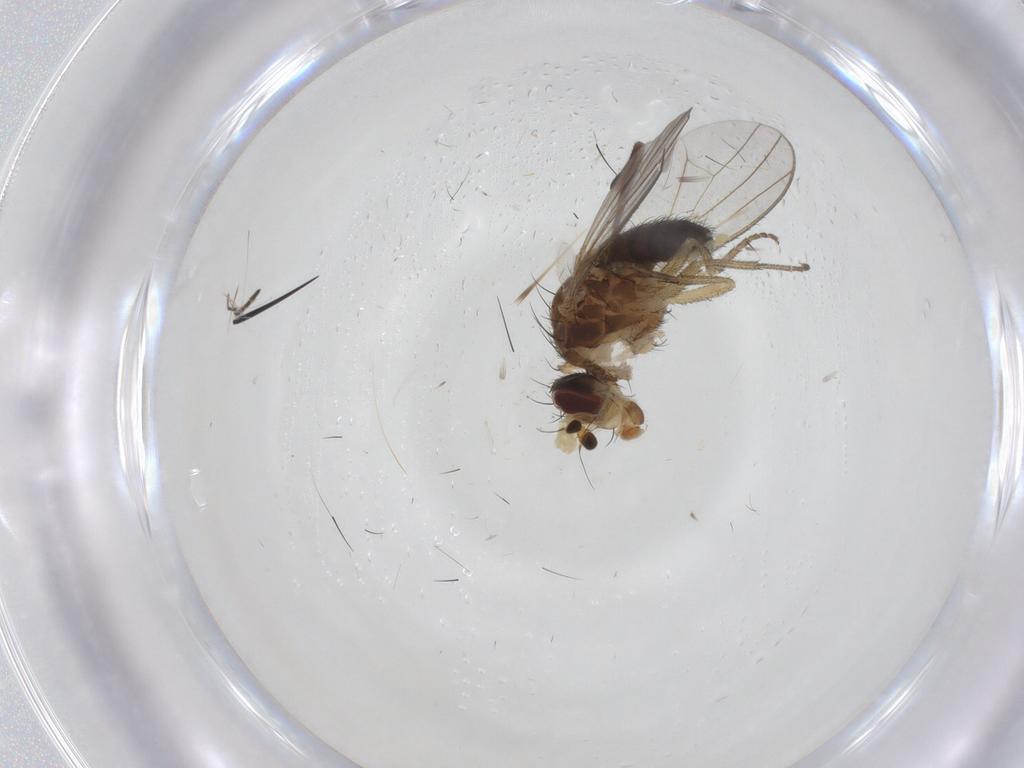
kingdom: Animalia
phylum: Arthropoda
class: Insecta
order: Diptera
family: Heleomyzidae
